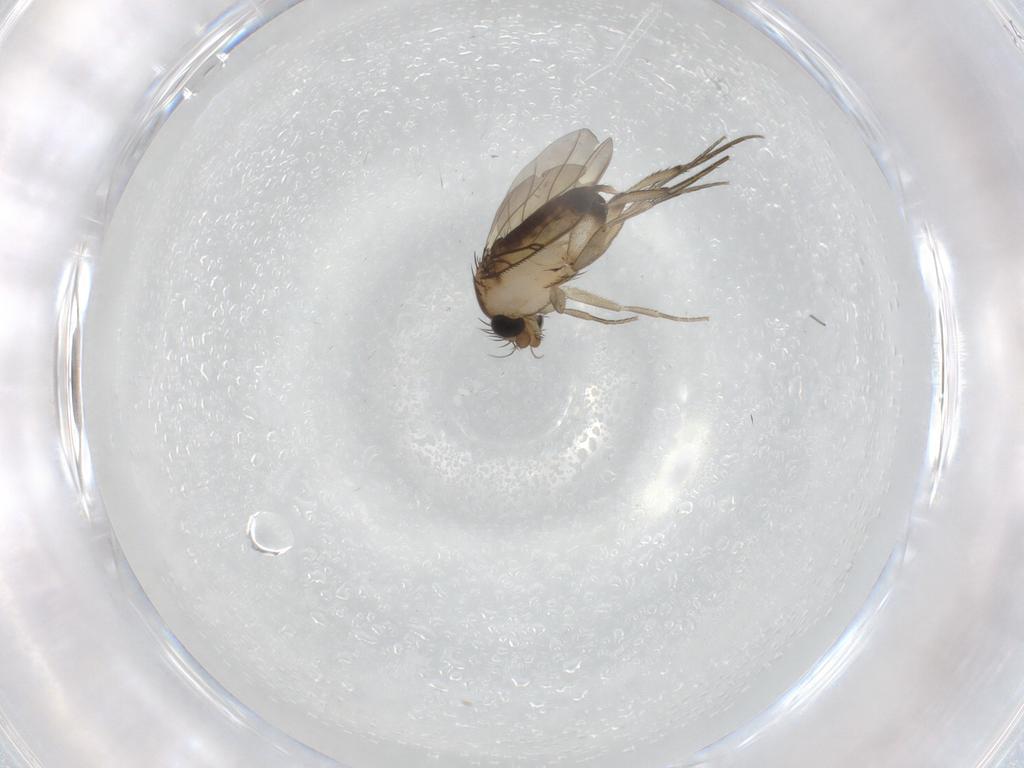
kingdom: Animalia
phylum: Arthropoda
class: Insecta
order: Diptera
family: Phoridae
